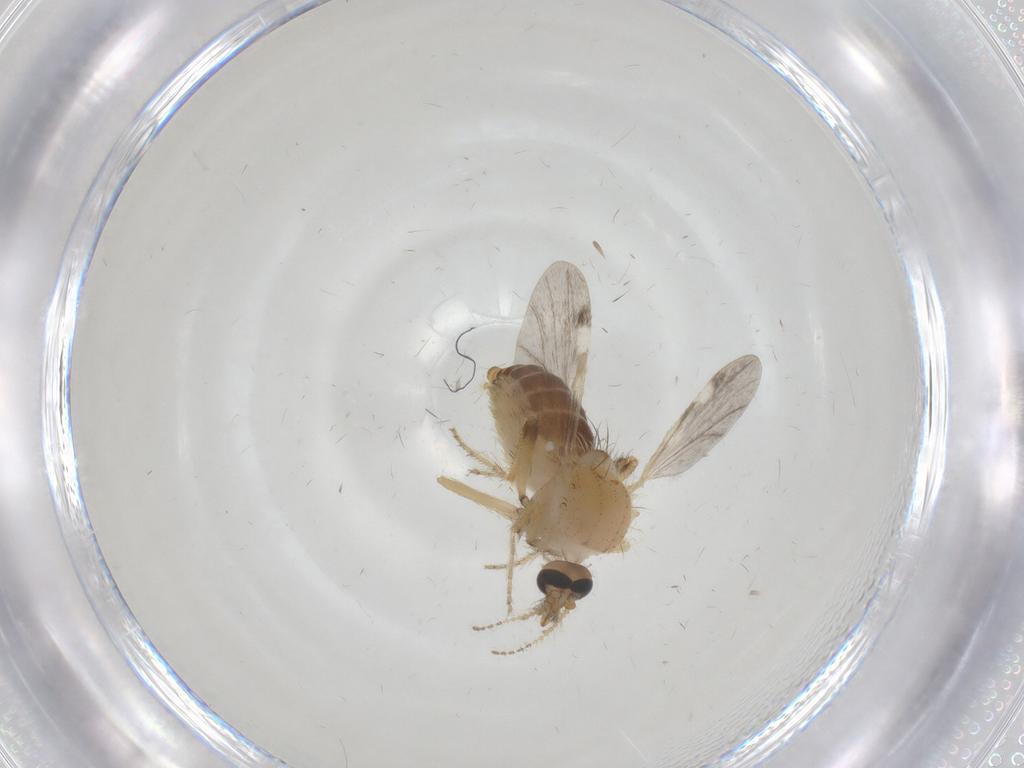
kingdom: Animalia
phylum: Arthropoda
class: Insecta
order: Diptera
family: Ceratopogonidae
